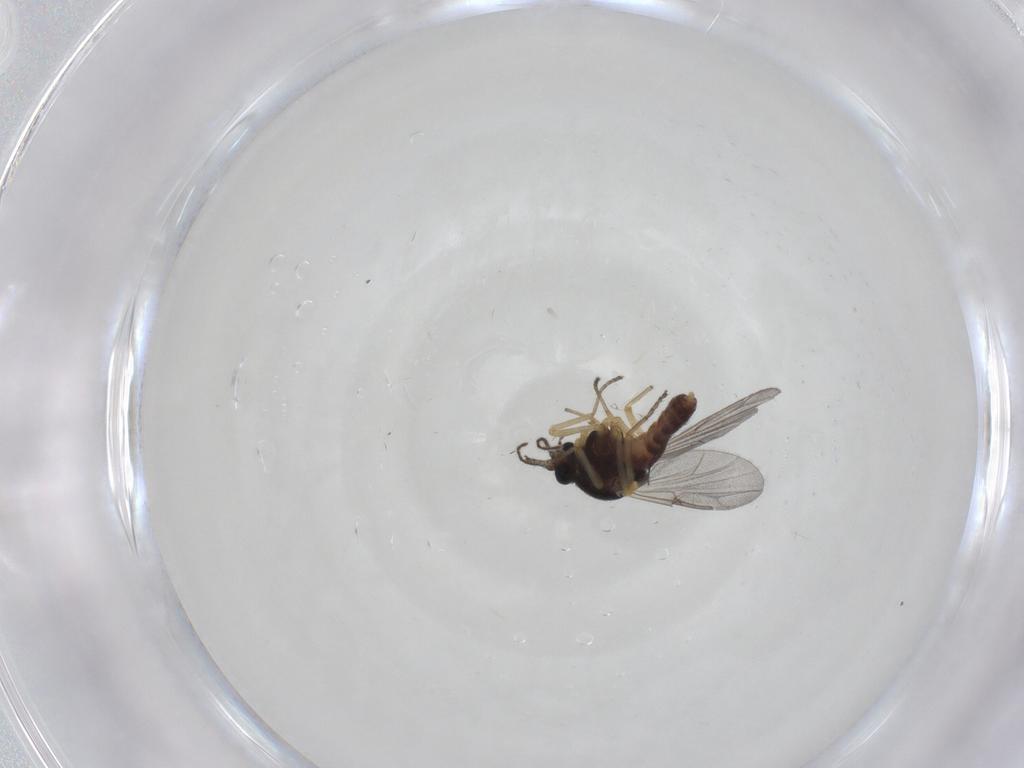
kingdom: Animalia
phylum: Arthropoda
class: Insecta
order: Diptera
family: Ceratopogonidae
